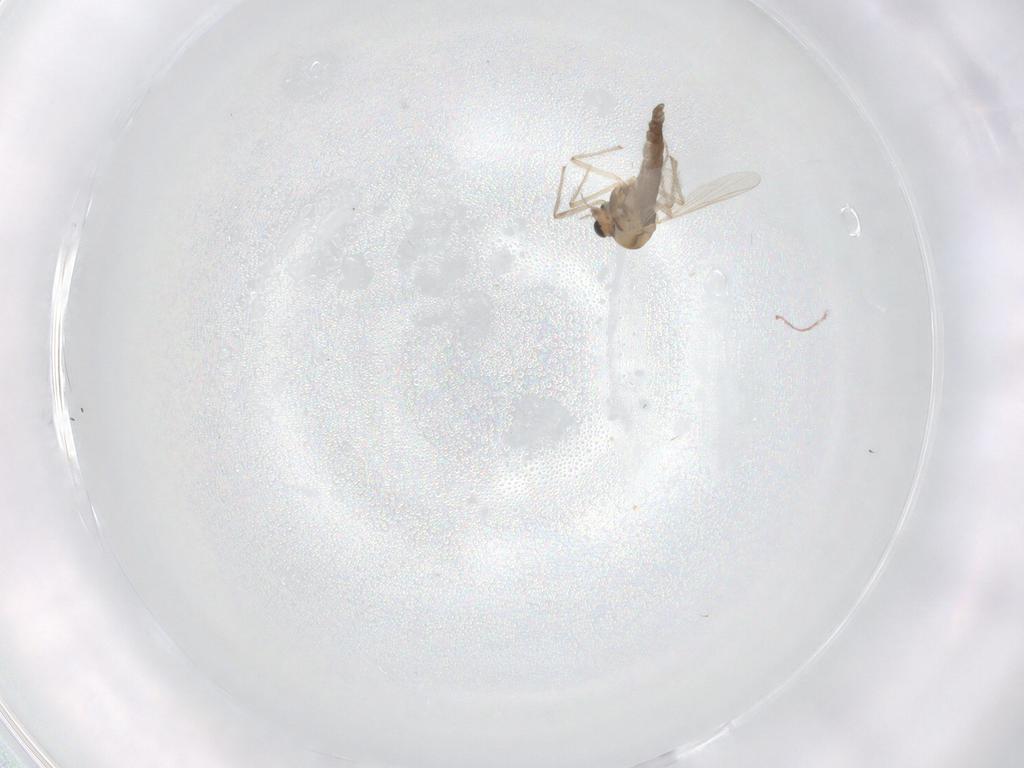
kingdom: Animalia
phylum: Arthropoda
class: Insecta
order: Diptera
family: Chironomidae
